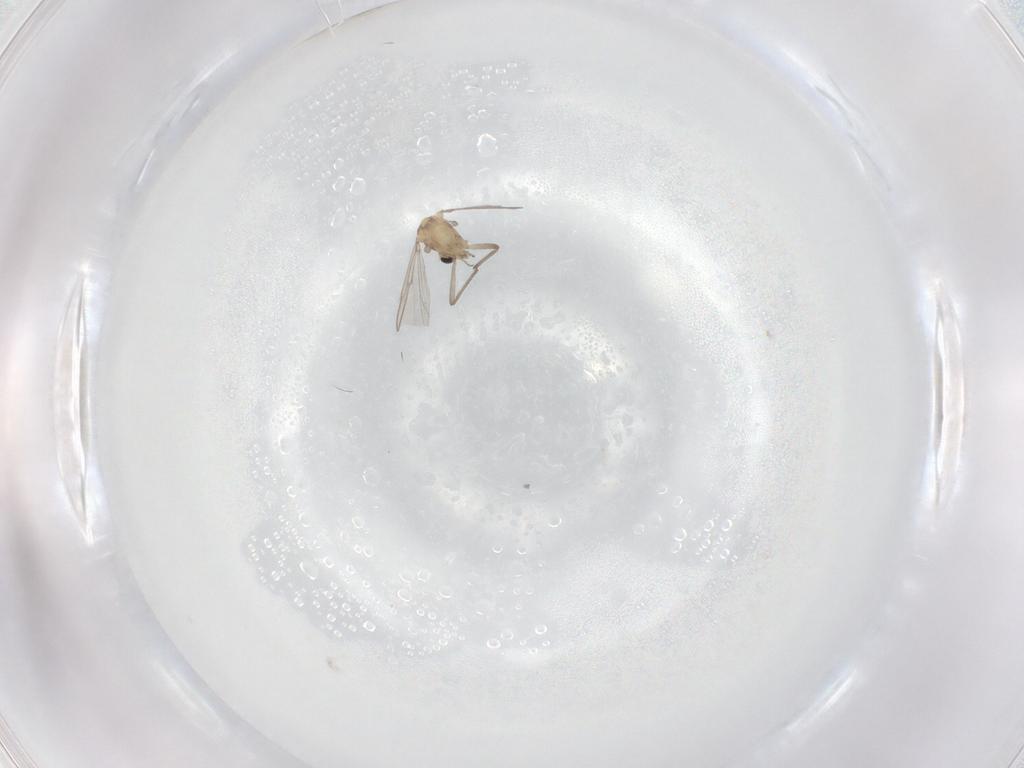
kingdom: Animalia
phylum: Arthropoda
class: Insecta
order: Diptera
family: Chironomidae
